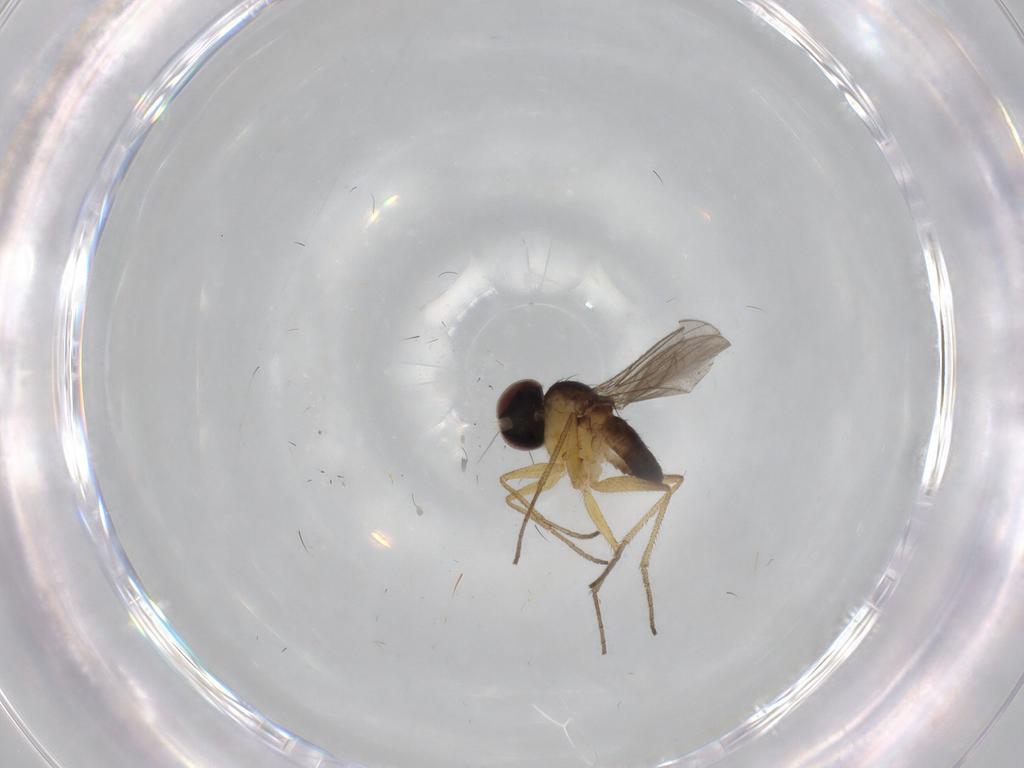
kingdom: Animalia
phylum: Arthropoda
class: Insecta
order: Diptera
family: Dolichopodidae
